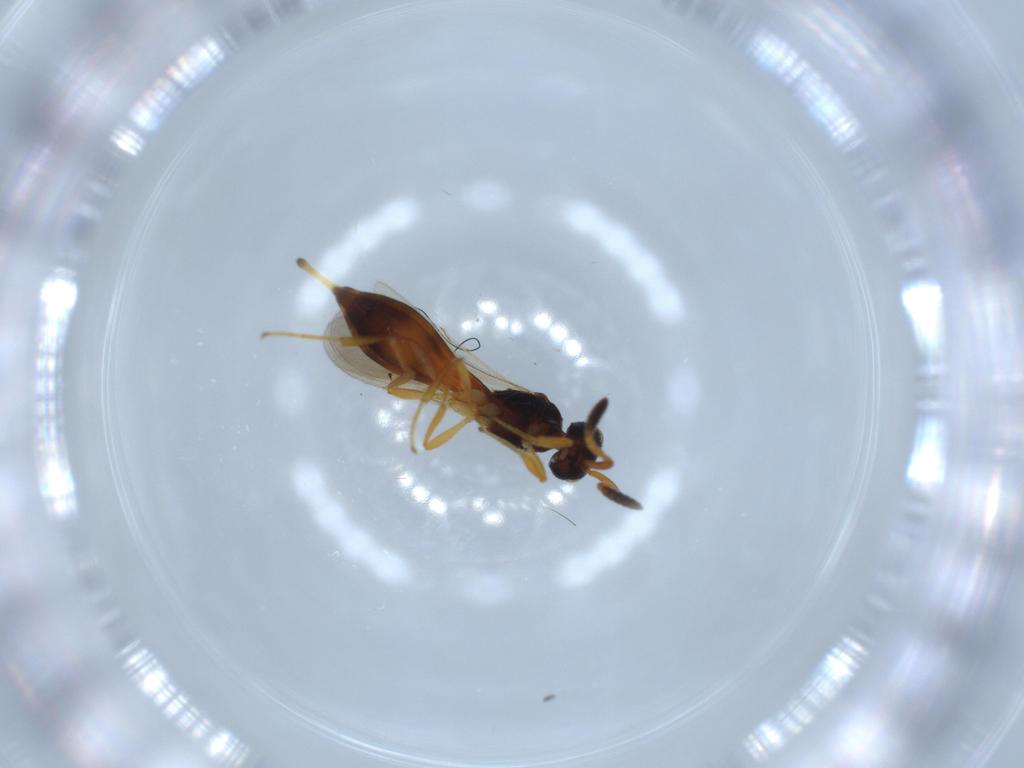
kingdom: Animalia
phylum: Arthropoda
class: Insecta
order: Hymenoptera
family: Scelionidae
